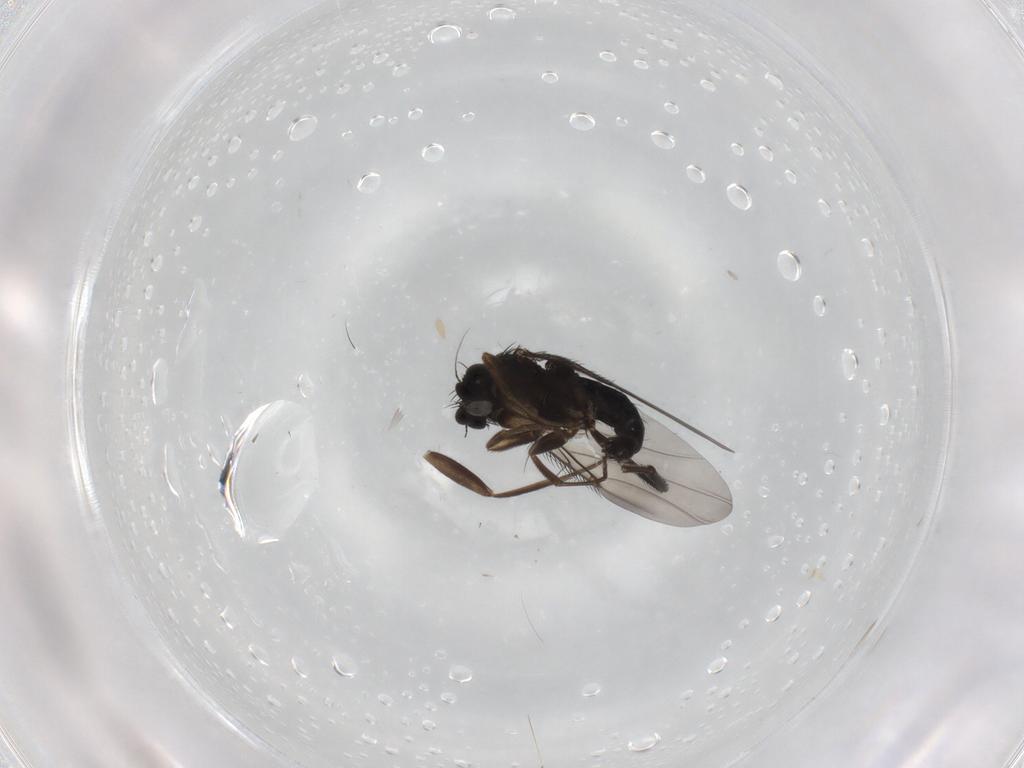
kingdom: Animalia
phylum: Arthropoda
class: Insecta
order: Diptera
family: Phoridae
